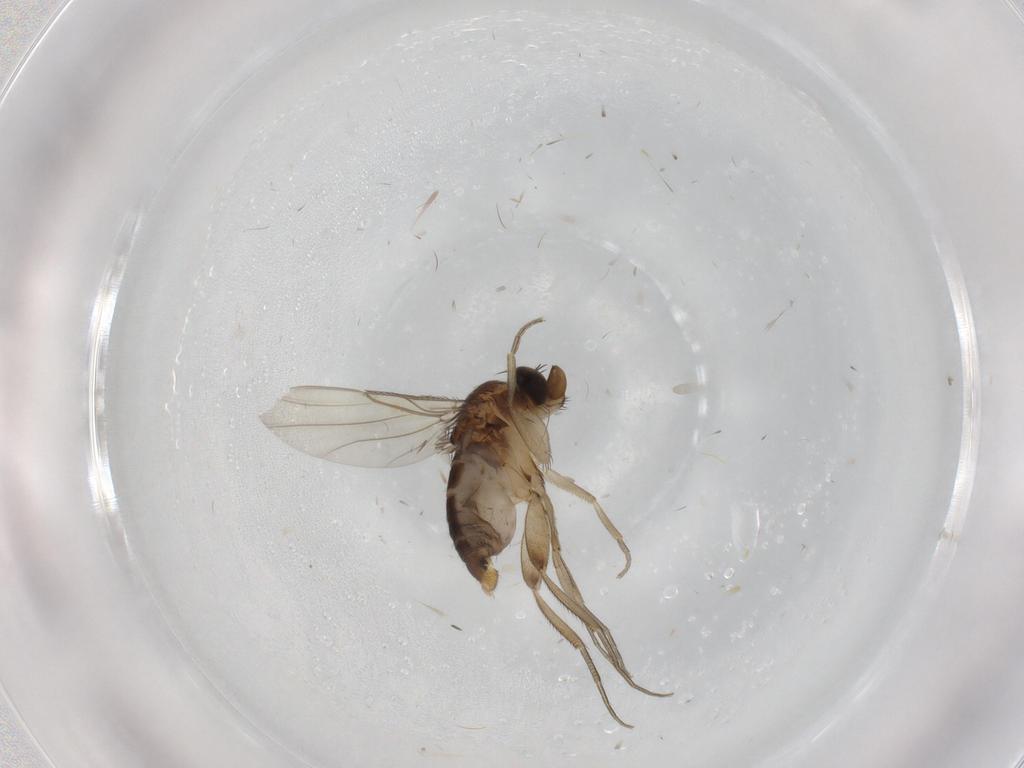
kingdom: Animalia
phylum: Arthropoda
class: Insecta
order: Diptera
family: Phoridae
